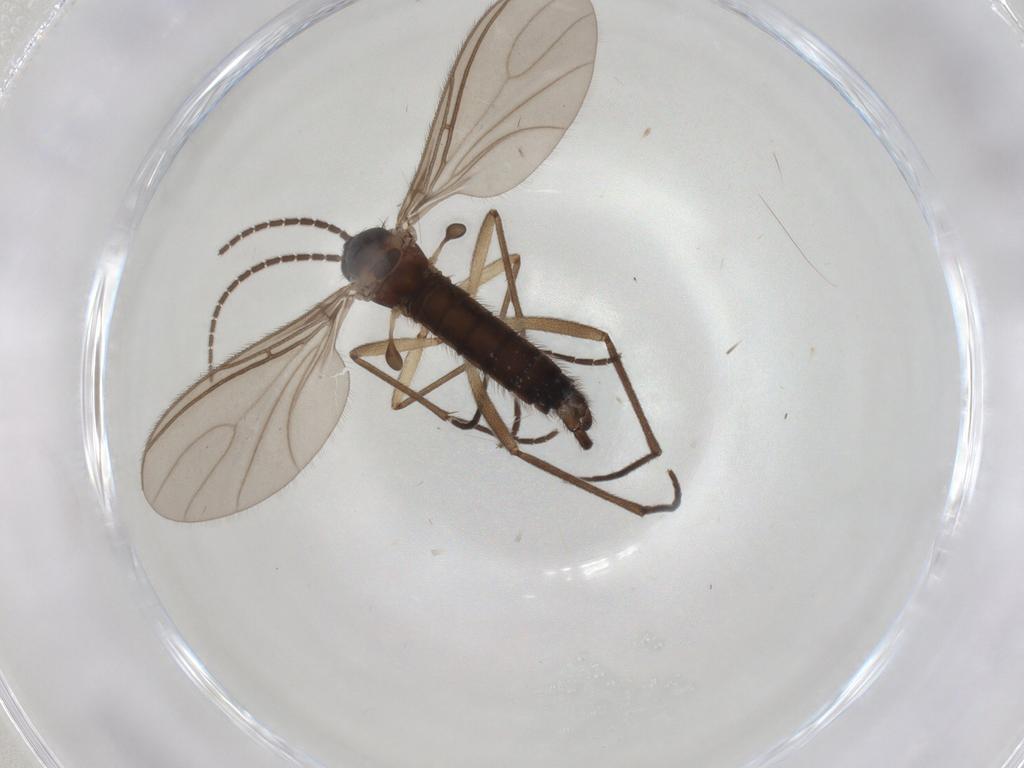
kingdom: Animalia
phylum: Arthropoda
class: Insecta
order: Diptera
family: Sciaridae
